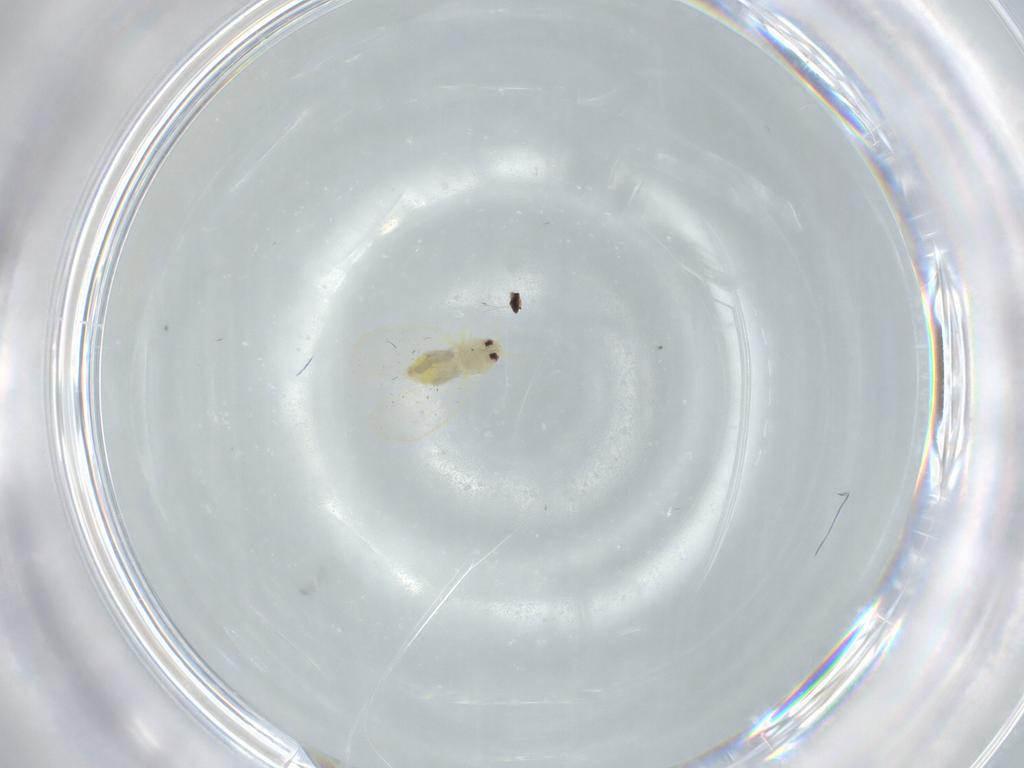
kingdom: Animalia
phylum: Arthropoda
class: Insecta
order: Hemiptera
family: Aleyrodidae
